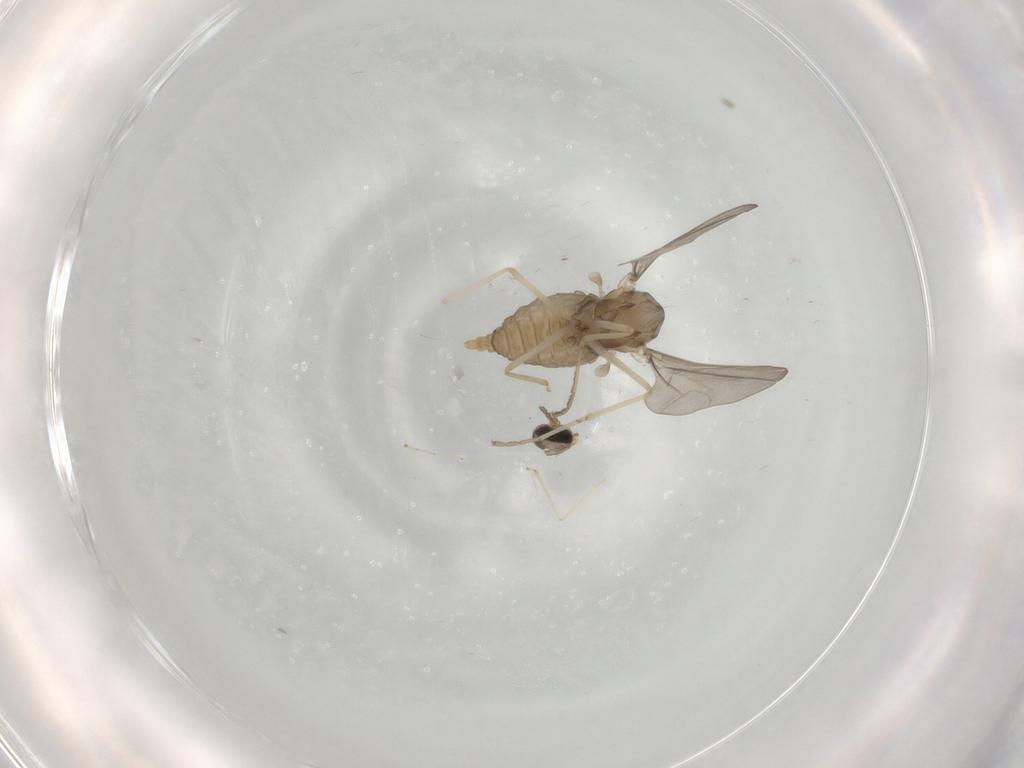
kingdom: Animalia
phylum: Arthropoda
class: Insecta
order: Diptera
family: Cecidomyiidae
